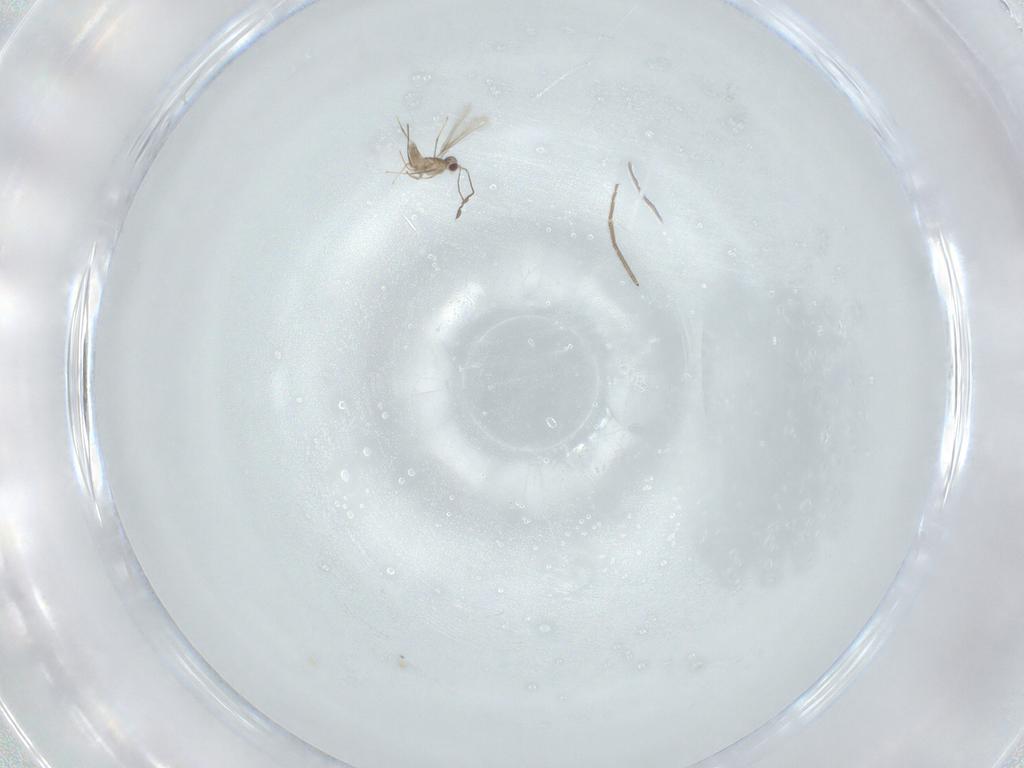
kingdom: Animalia
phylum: Arthropoda
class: Insecta
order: Hymenoptera
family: Mymaridae
